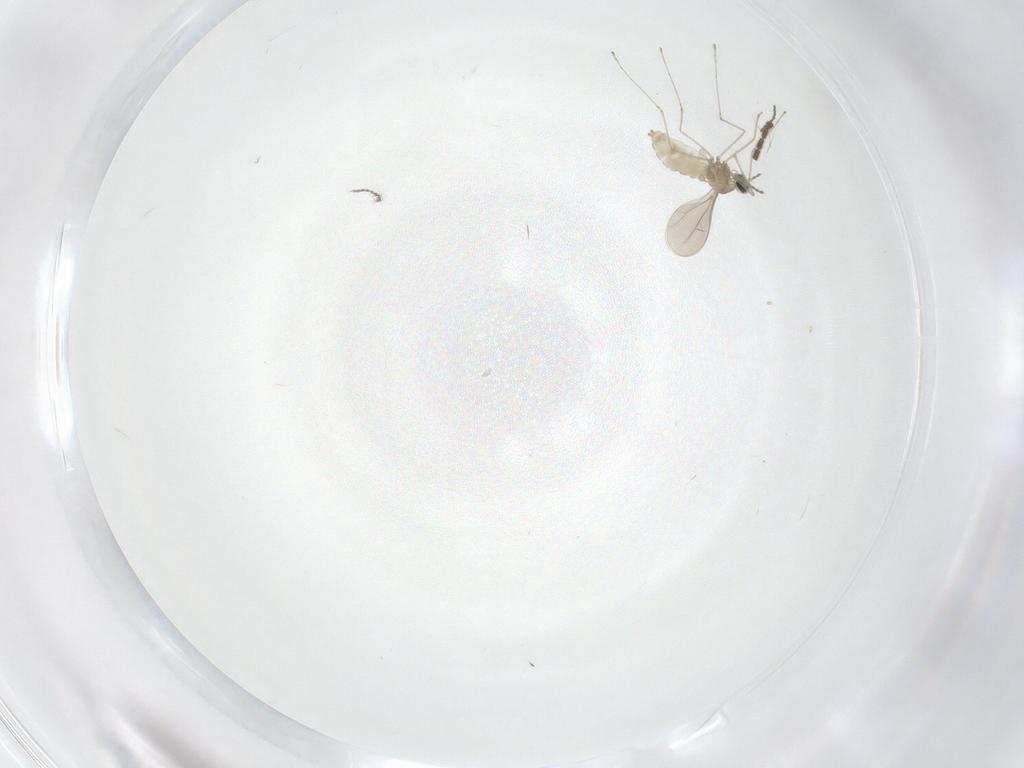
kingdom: Animalia
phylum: Arthropoda
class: Insecta
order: Diptera
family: Cecidomyiidae
